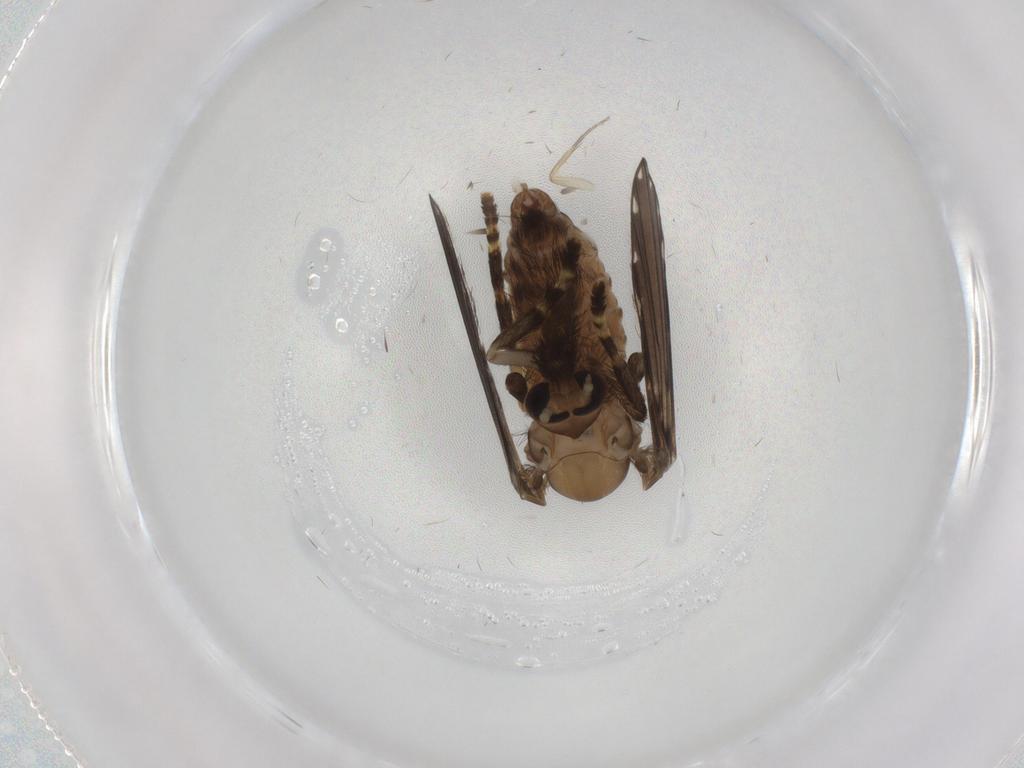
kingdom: Animalia
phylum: Arthropoda
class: Insecta
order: Diptera
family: Psychodidae
